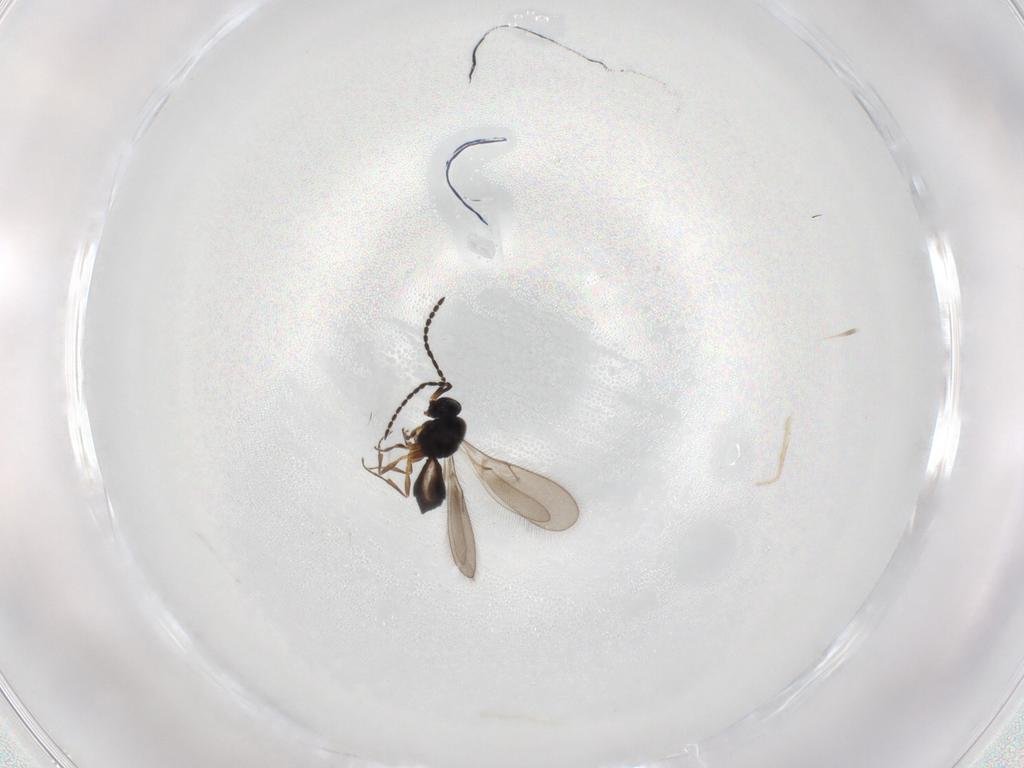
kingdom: Animalia
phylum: Arthropoda
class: Insecta
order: Hymenoptera
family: Scelionidae
